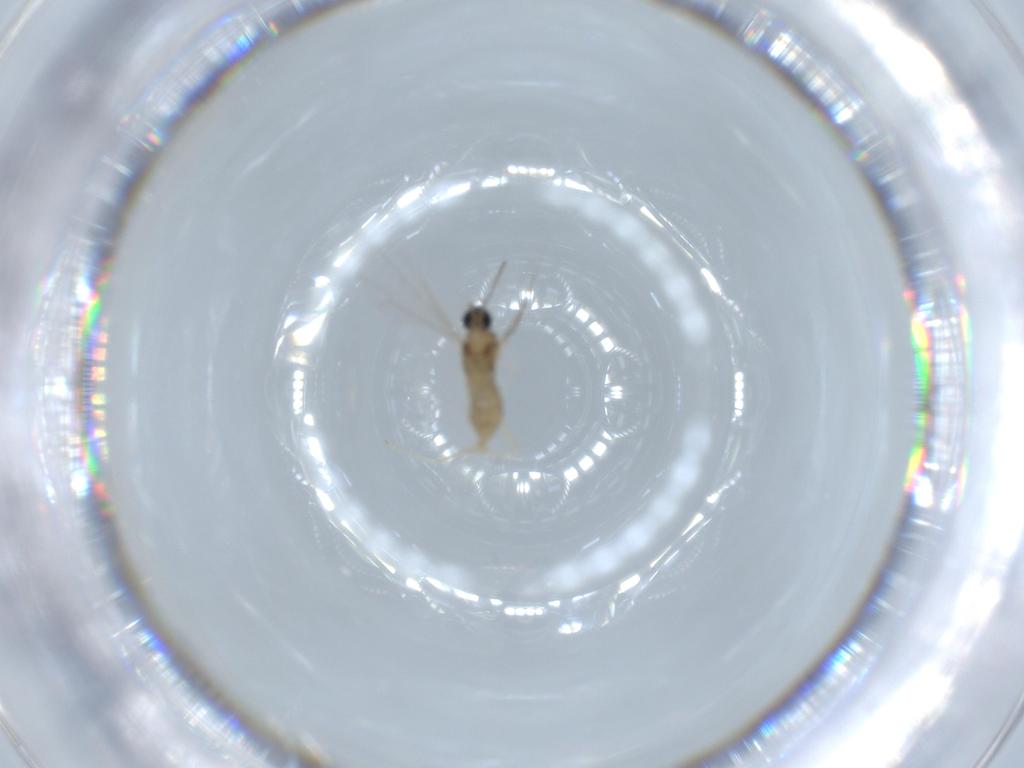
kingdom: Animalia
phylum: Arthropoda
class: Insecta
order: Diptera
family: Cecidomyiidae
